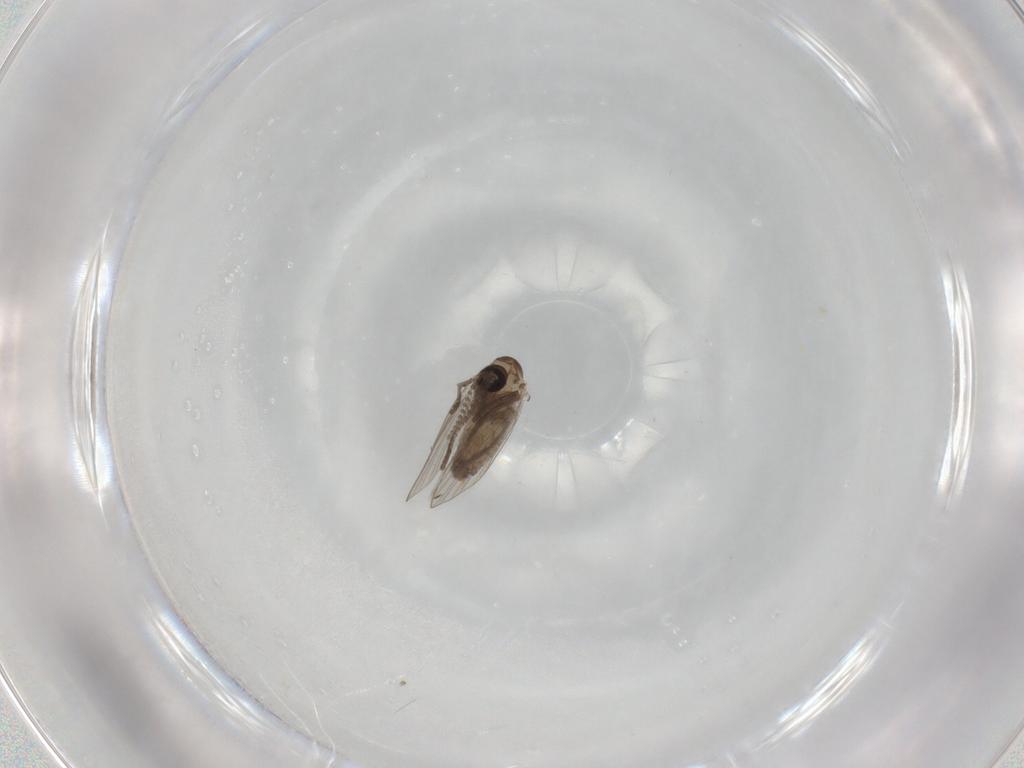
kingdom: Animalia
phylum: Arthropoda
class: Insecta
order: Diptera
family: Psychodidae
